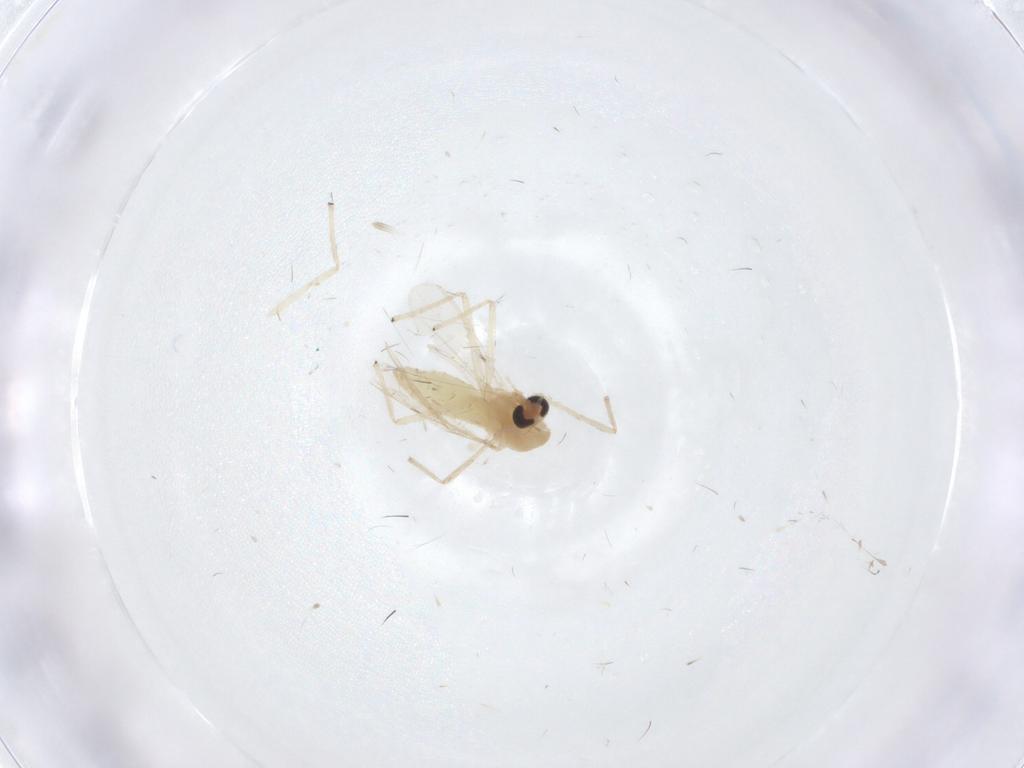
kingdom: Animalia
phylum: Arthropoda
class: Insecta
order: Diptera
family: Chironomidae
